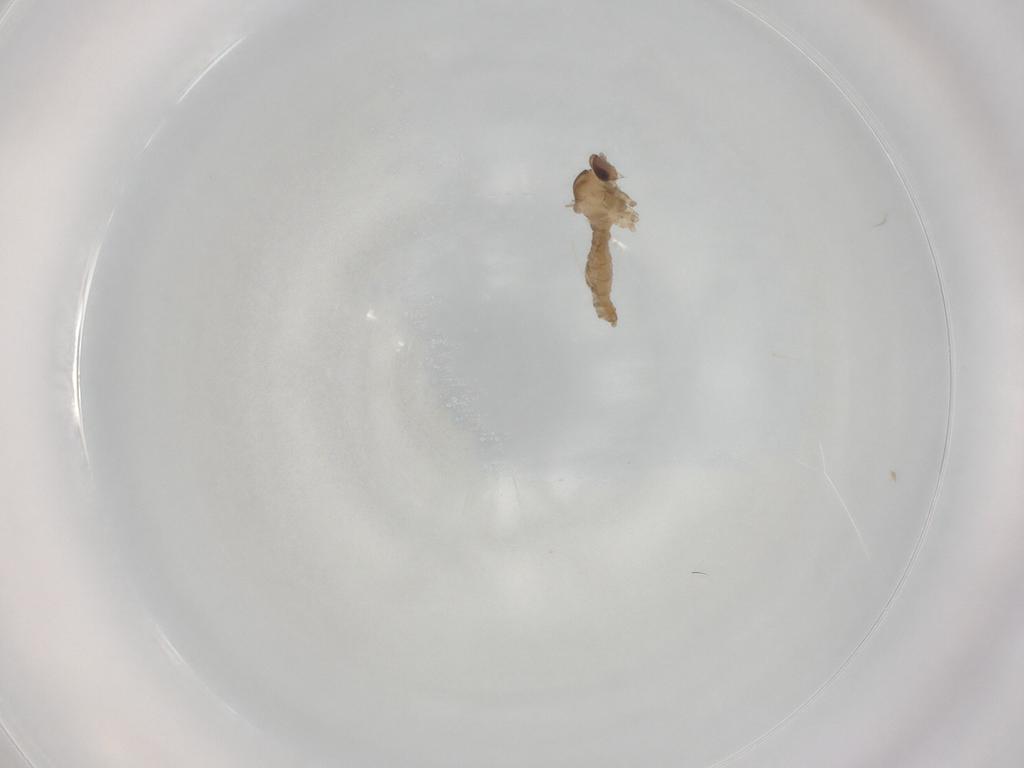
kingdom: Animalia
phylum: Arthropoda
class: Insecta
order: Diptera
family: Cecidomyiidae
